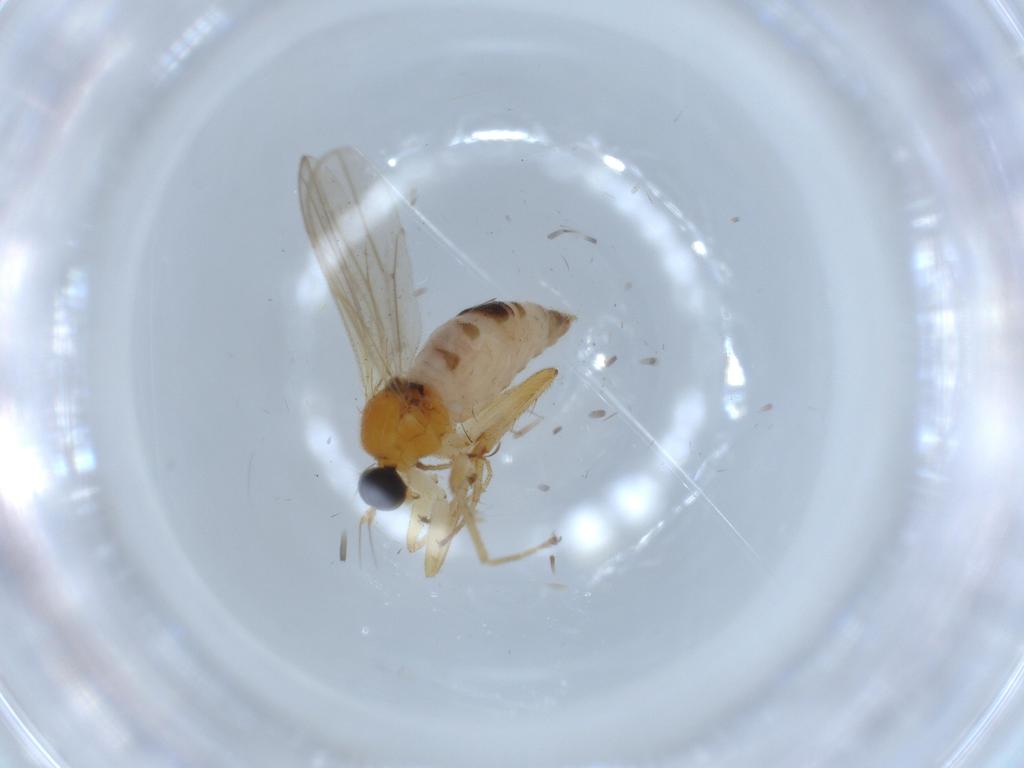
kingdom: Animalia
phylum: Arthropoda
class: Insecta
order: Diptera
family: Hybotidae
